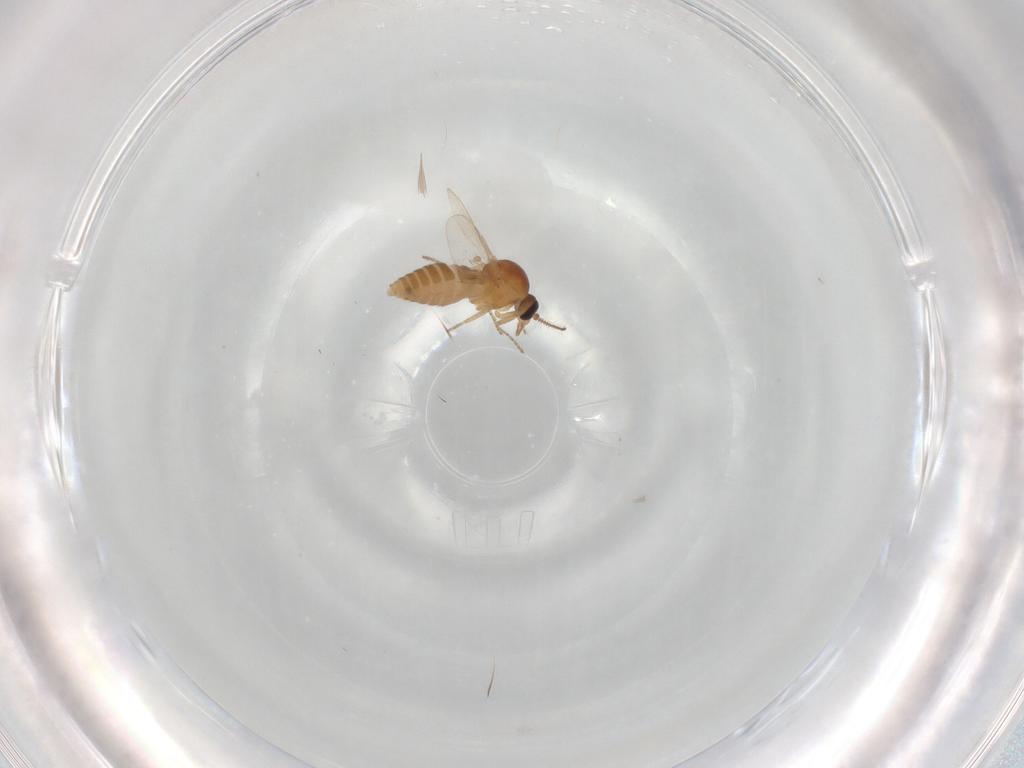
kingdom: Animalia
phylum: Arthropoda
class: Insecta
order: Diptera
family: Ceratopogonidae
